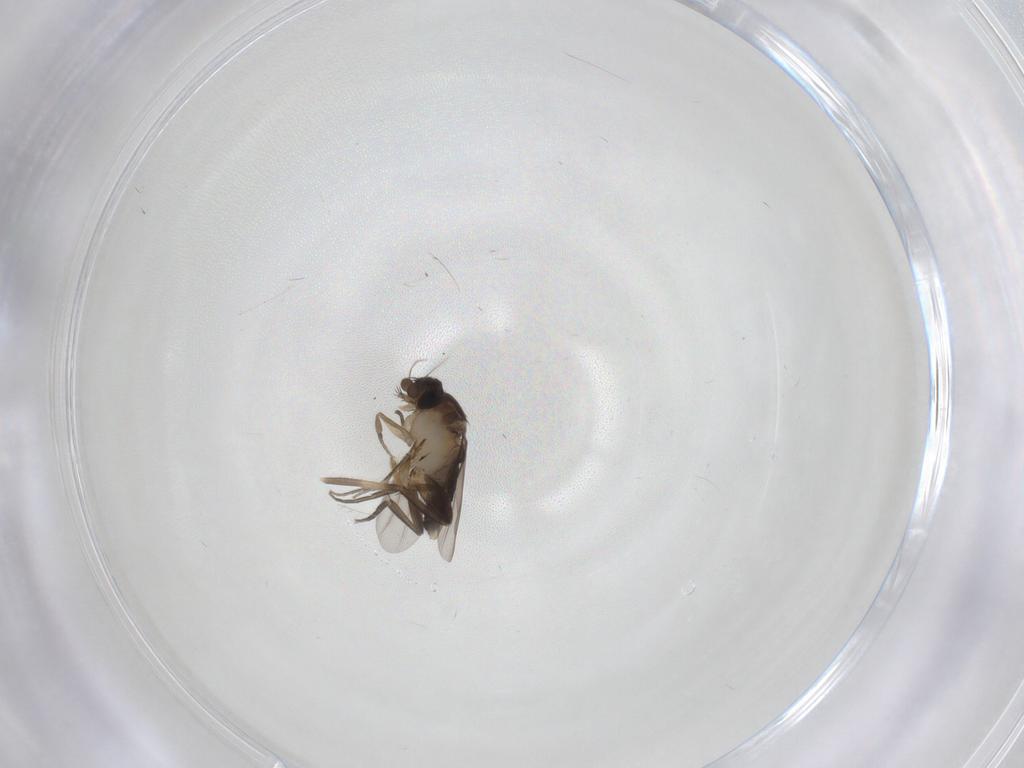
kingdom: Animalia
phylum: Arthropoda
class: Insecta
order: Diptera
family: Phoridae
